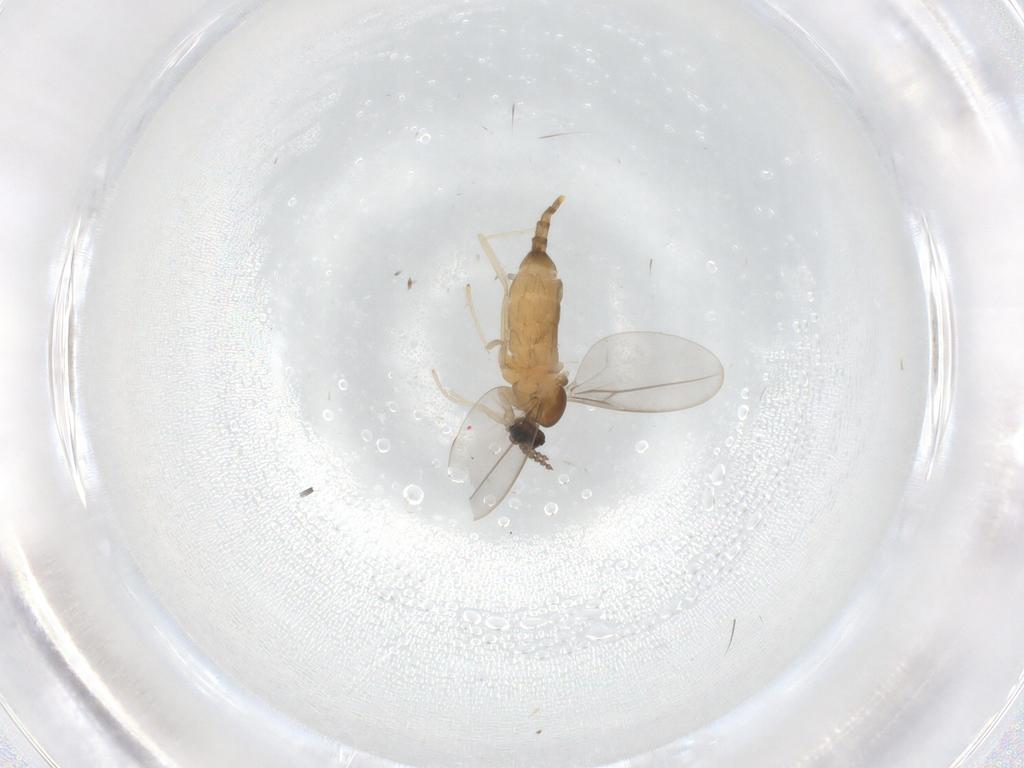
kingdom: Animalia
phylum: Arthropoda
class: Insecta
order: Diptera
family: Cecidomyiidae
